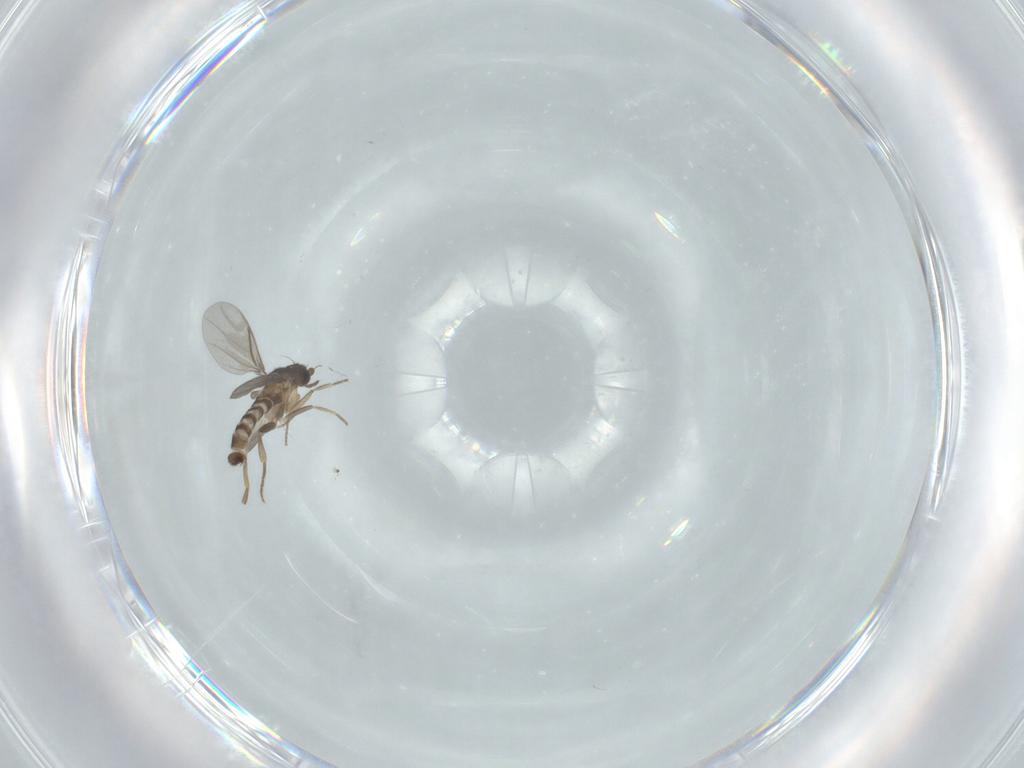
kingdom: Animalia
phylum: Arthropoda
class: Insecta
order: Diptera
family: Chironomidae
